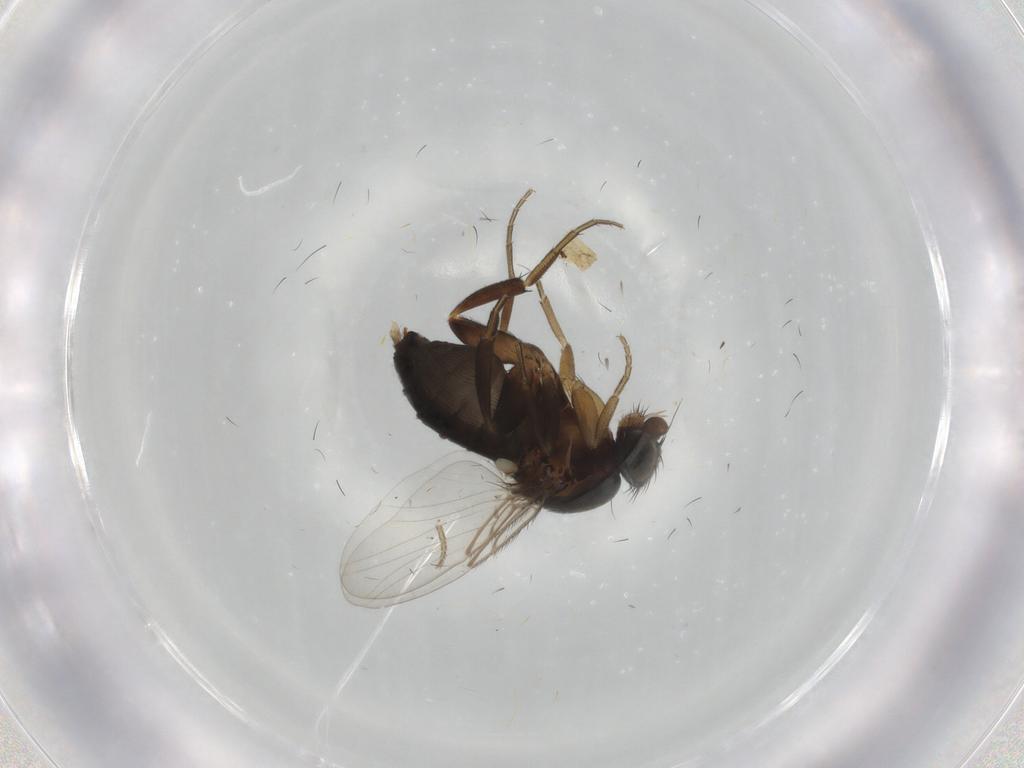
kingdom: Animalia
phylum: Arthropoda
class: Insecta
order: Diptera
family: Phoridae
